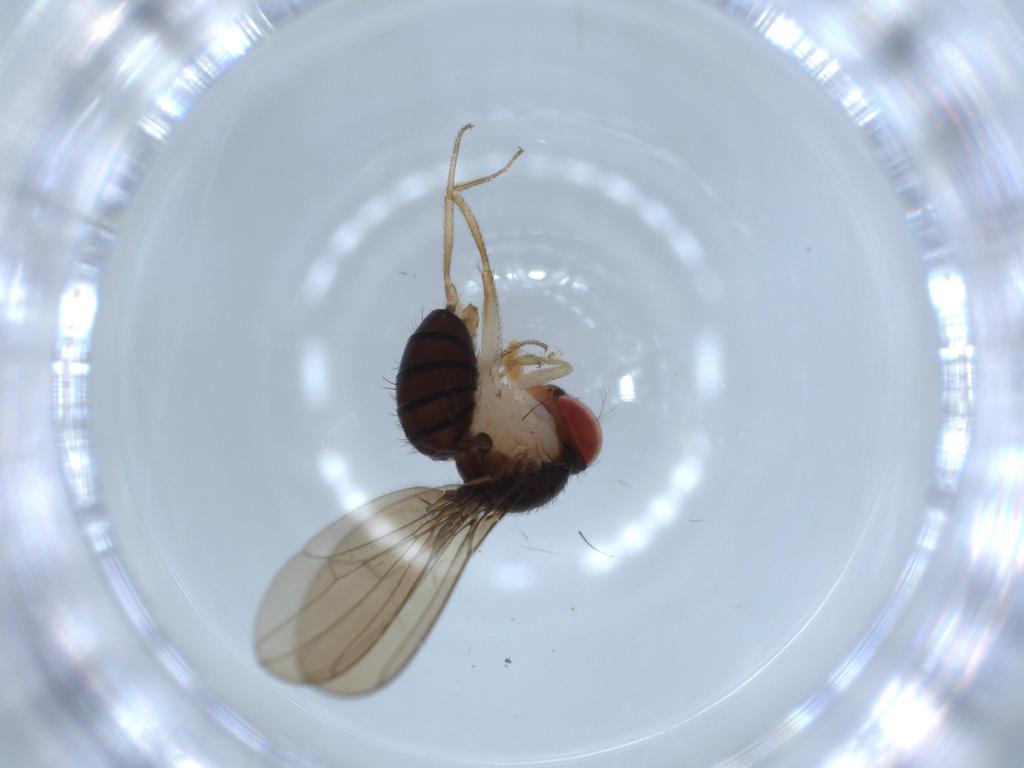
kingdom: Animalia
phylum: Arthropoda
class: Insecta
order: Diptera
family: Drosophilidae
